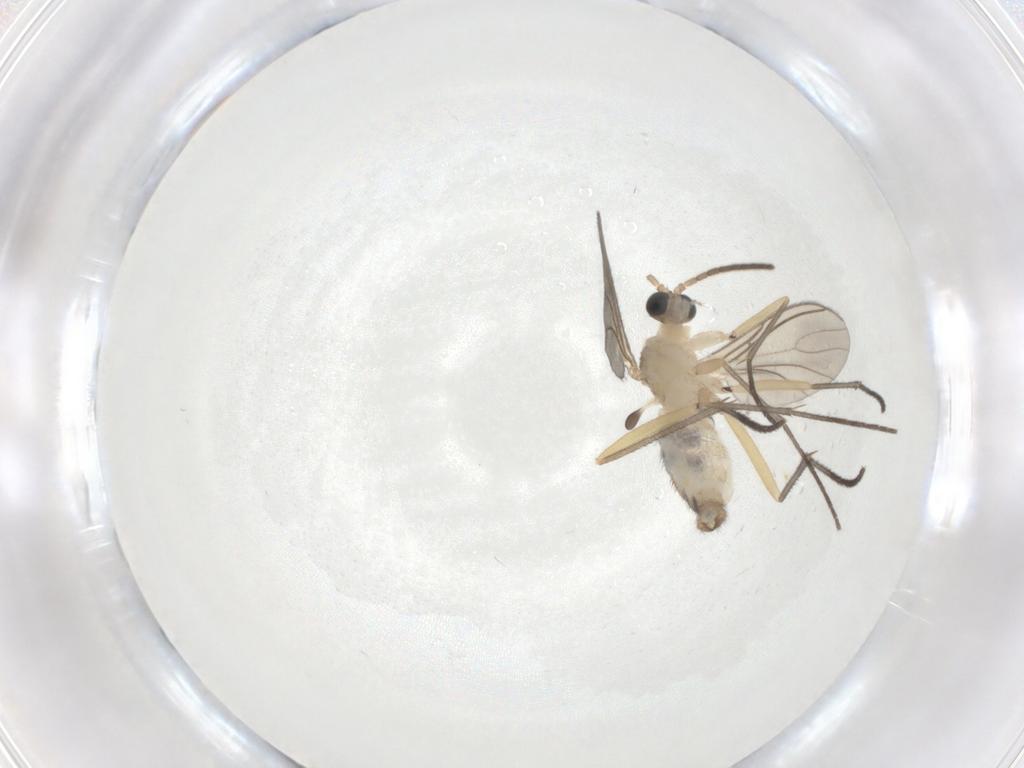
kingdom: Animalia
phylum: Arthropoda
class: Insecta
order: Diptera
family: Sciaridae
